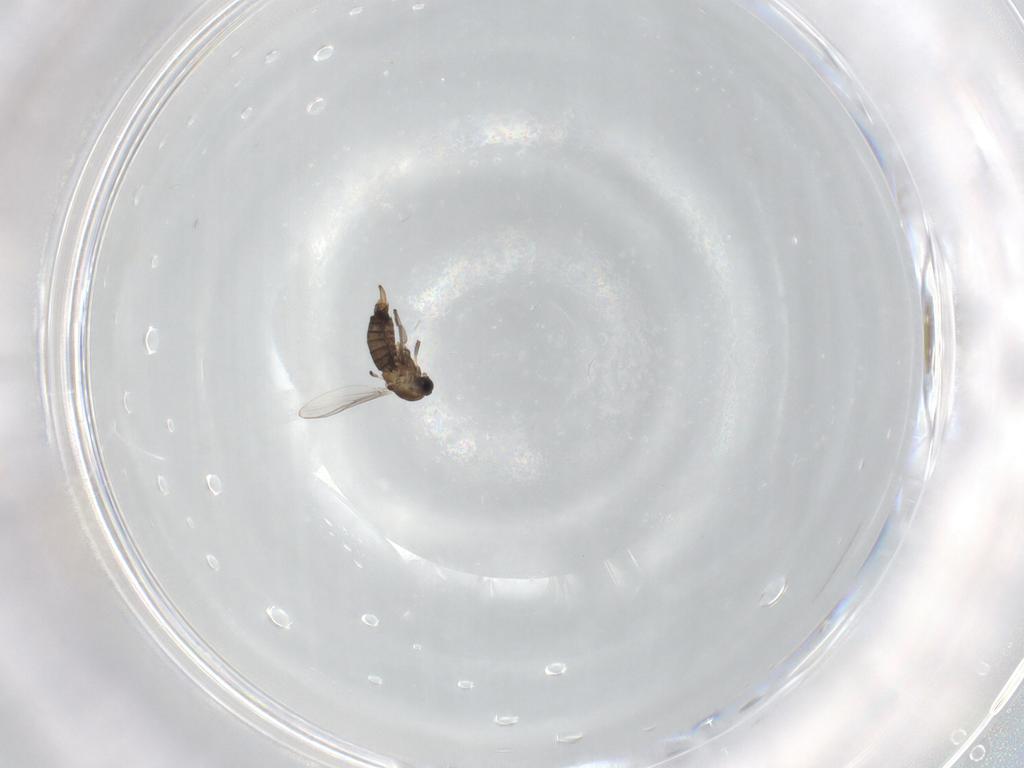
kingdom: Animalia
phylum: Arthropoda
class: Insecta
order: Diptera
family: Chironomidae
